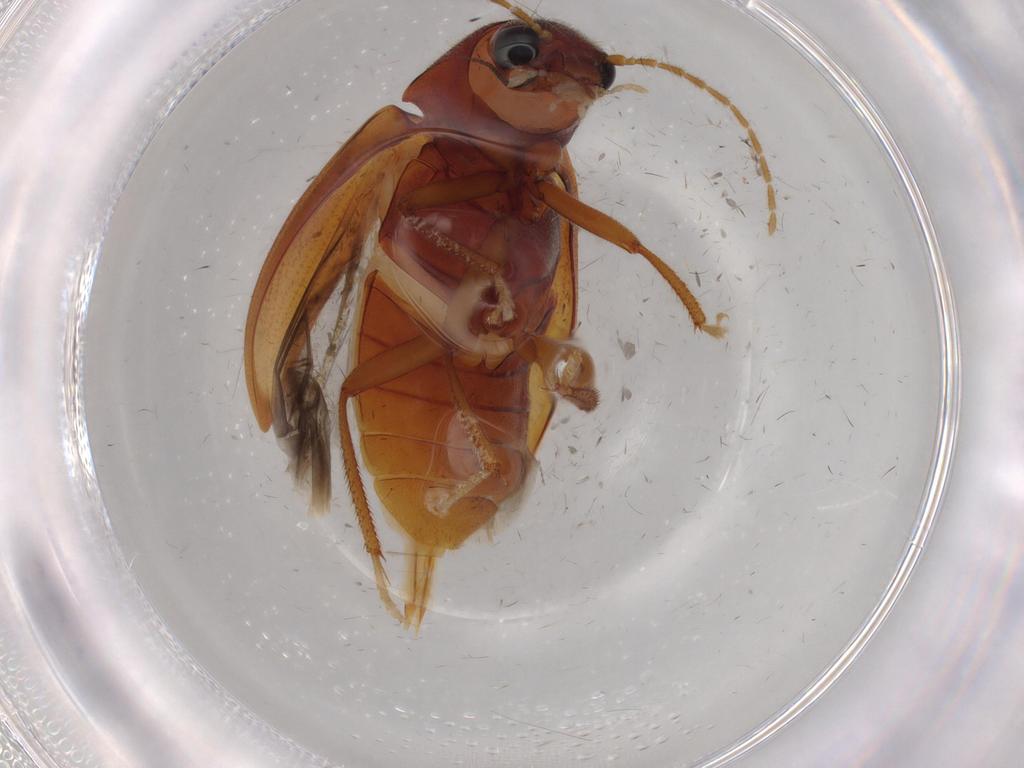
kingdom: Animalia
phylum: Arthropoda
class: Insecta
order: Coleoptera
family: Ptilodactylidae
